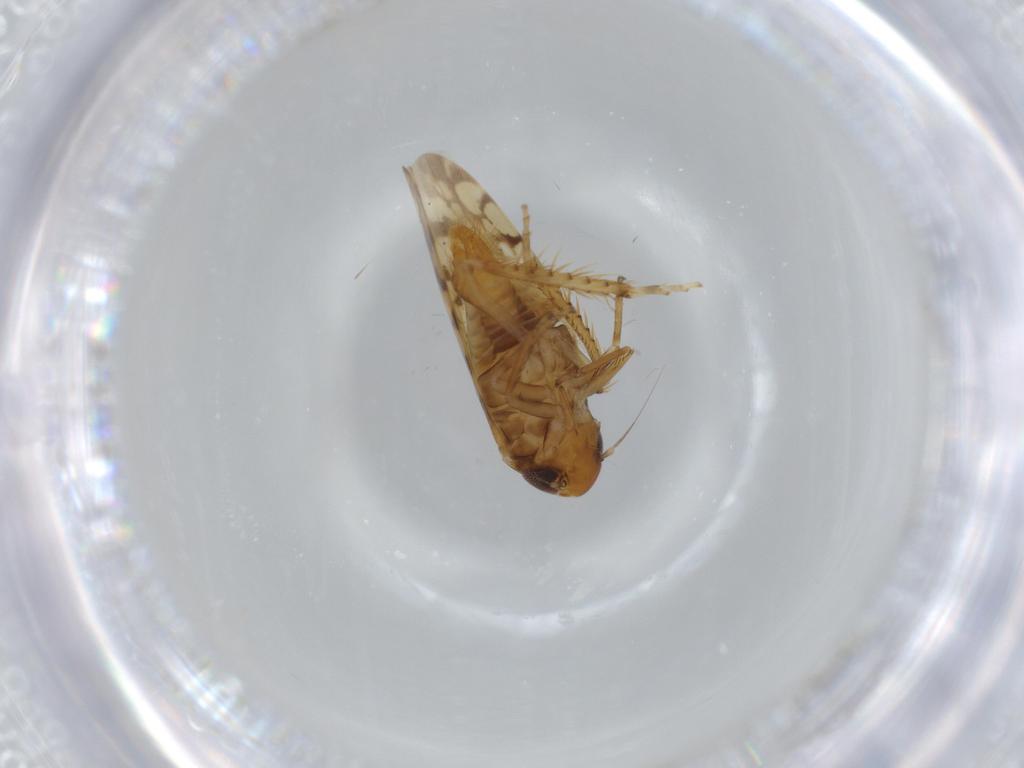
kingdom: Animalia
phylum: Arthropoda
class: Insecta
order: Hemiptera
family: Cicadellidae
